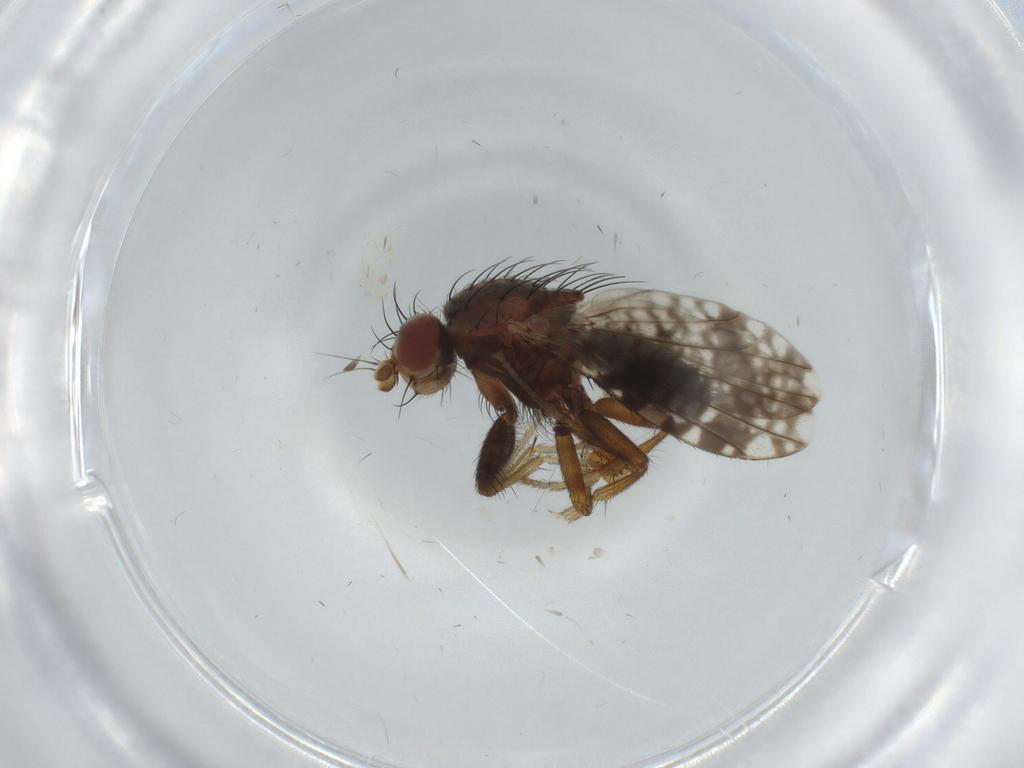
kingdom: Animalia
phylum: Arthropoda
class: Insecta
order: Diptera
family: Tephritidae
